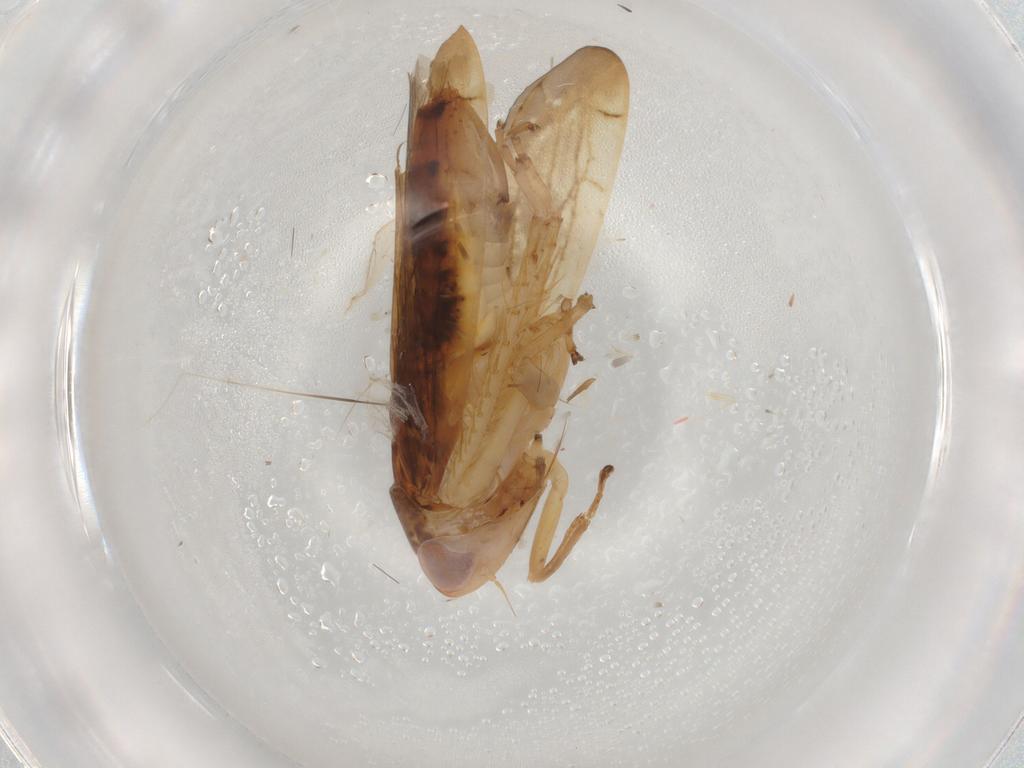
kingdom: Animalia
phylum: Arthropoda
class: Insecta
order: Hemiptera
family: Cicadellidae
